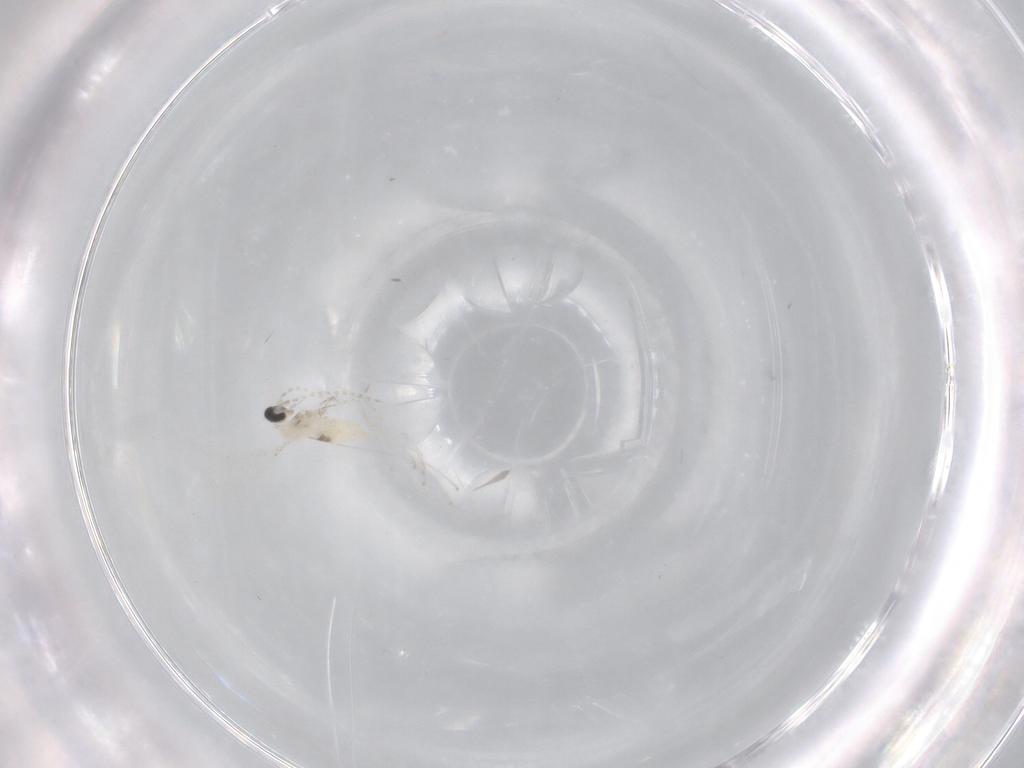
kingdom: Animalia
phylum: Arthropoda
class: Insecta
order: Diptera
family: Cecidomyiidae
